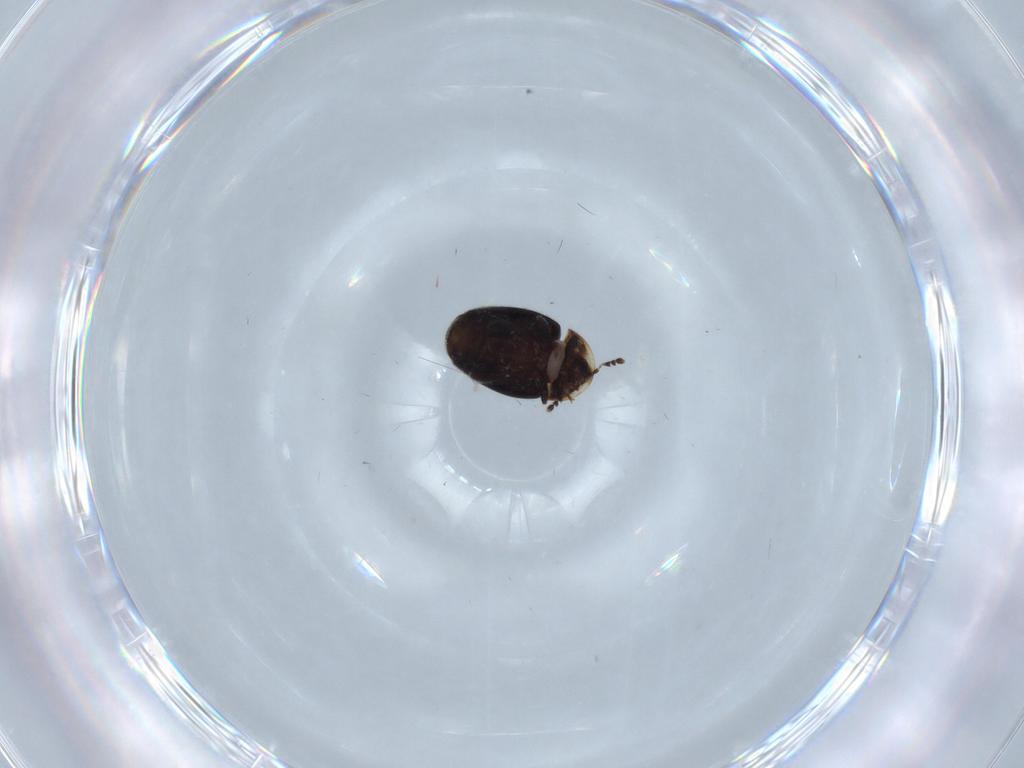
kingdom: Animalia
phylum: Arthropoda
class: Insecta
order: Coleoptera
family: Corylophidae
